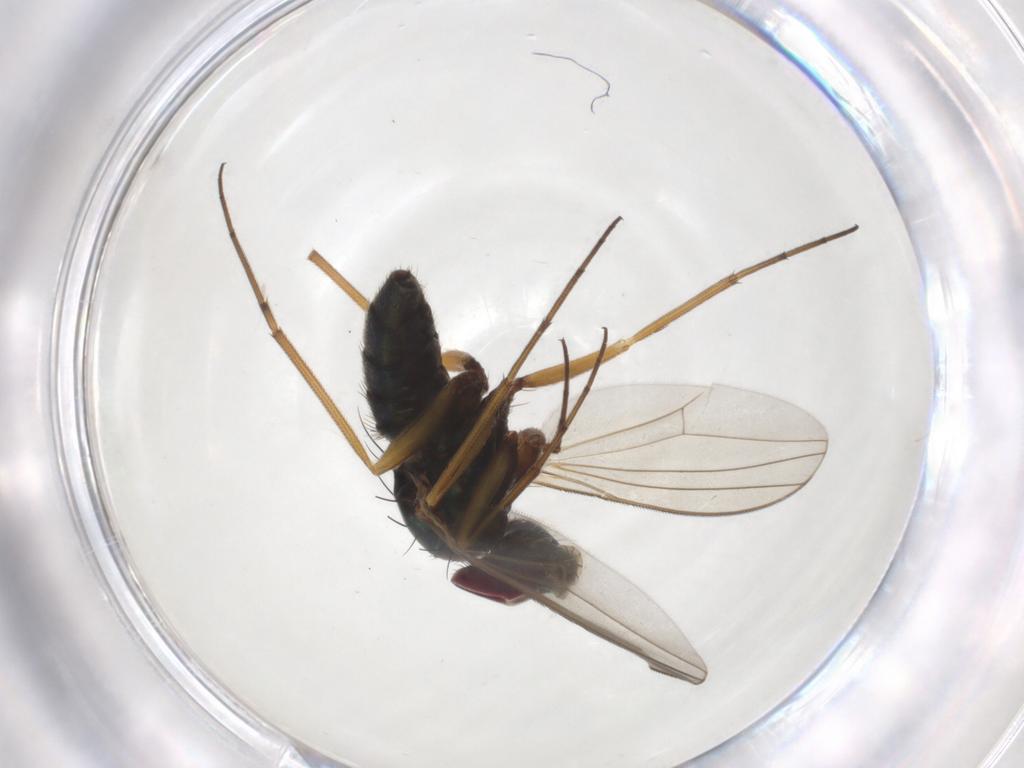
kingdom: Animalia
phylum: Arthropoda
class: Insecta
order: Diptera
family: Dolichopodidae
